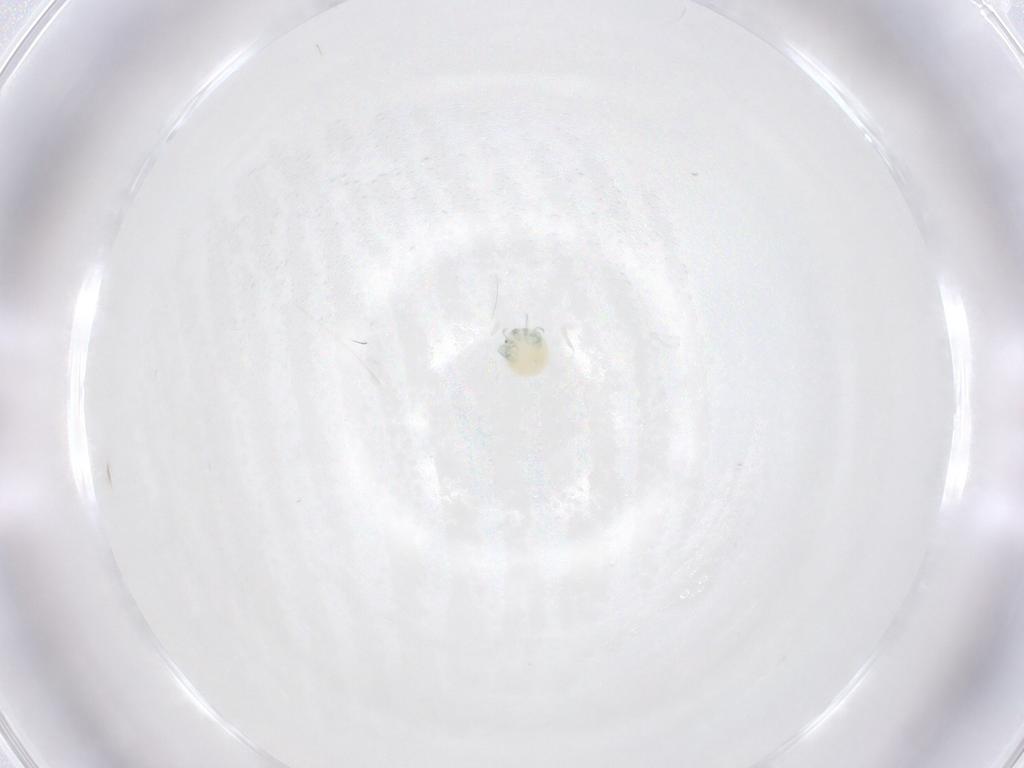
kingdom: Animalia
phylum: Arthropoda
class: Arachnida
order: Trombidiformes
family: Arrenuridae
